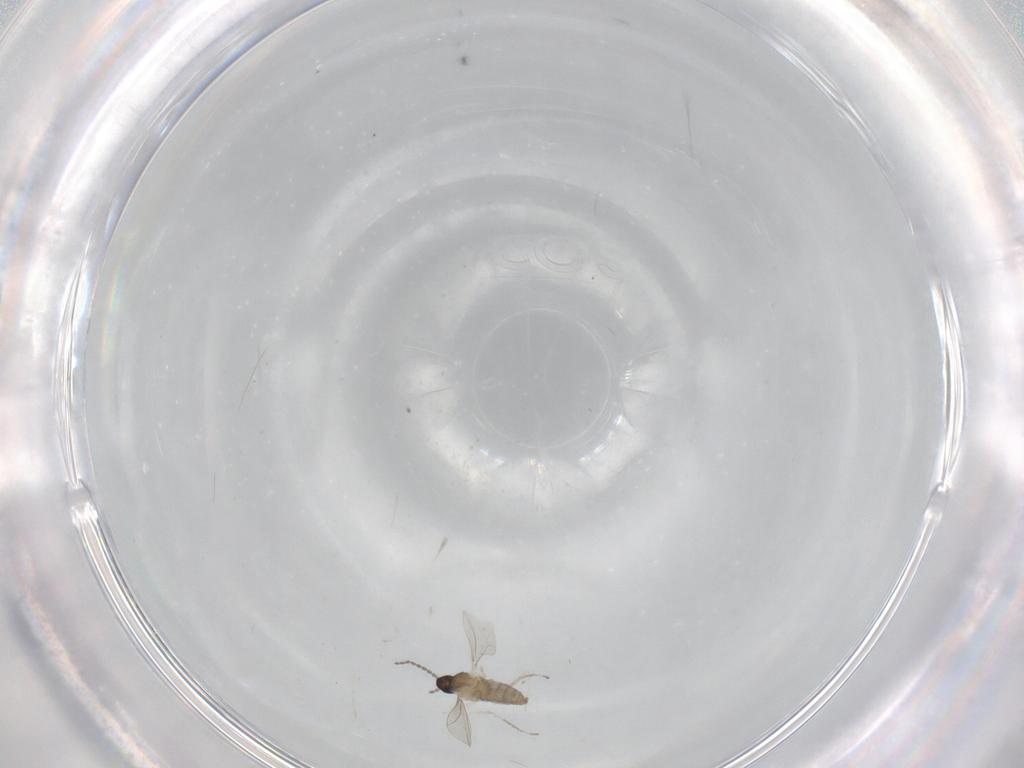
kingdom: Animalia
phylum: Arthropoda
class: Insecta
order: Diptera
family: Cecidomyiidae
